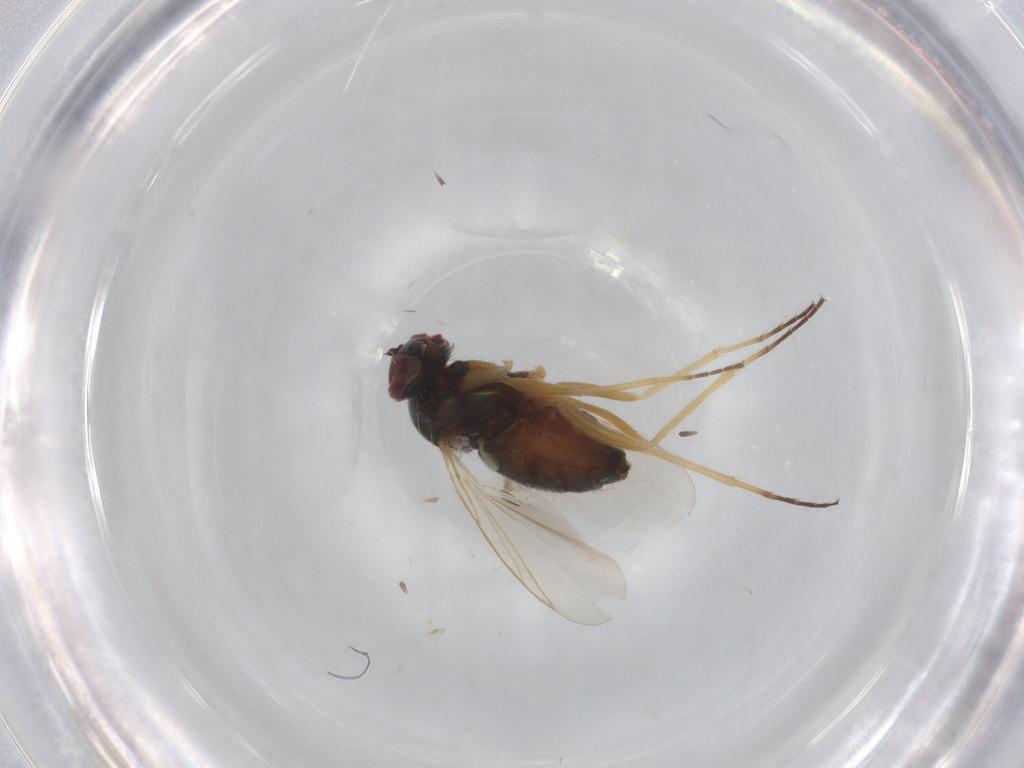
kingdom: Animalia
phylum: Arthropoda
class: Insecta
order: Diptera
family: Dolichopodidae
